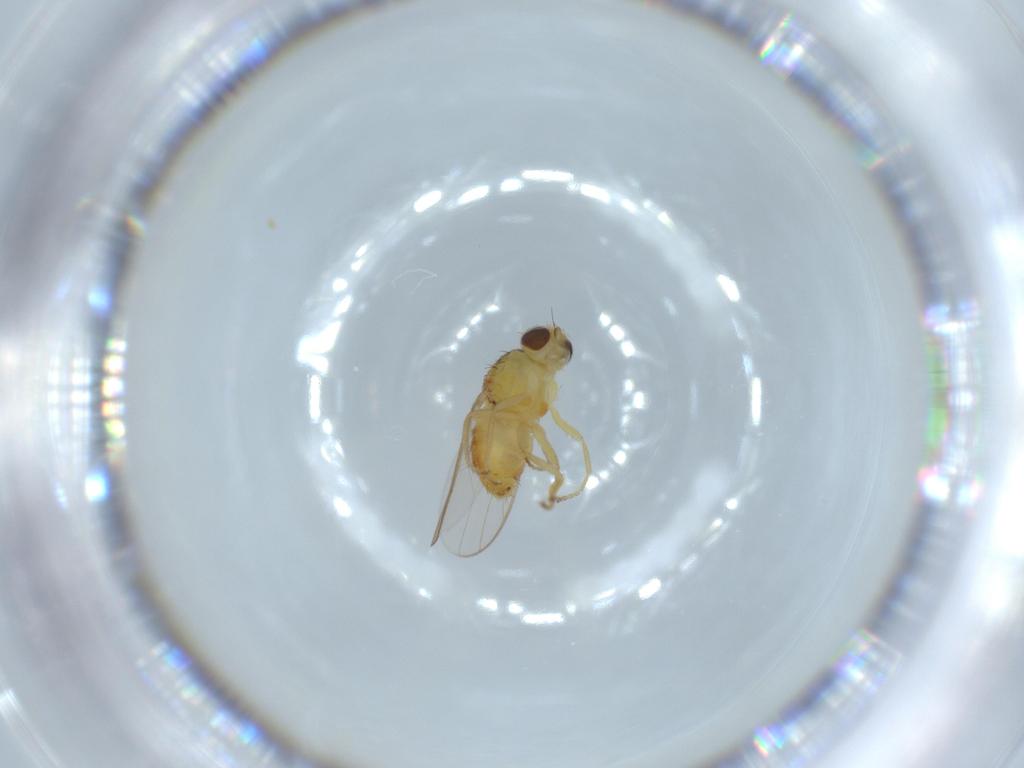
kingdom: Animalia
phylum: Arthropoda
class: Insecta
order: Diptera
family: Chloropidae
